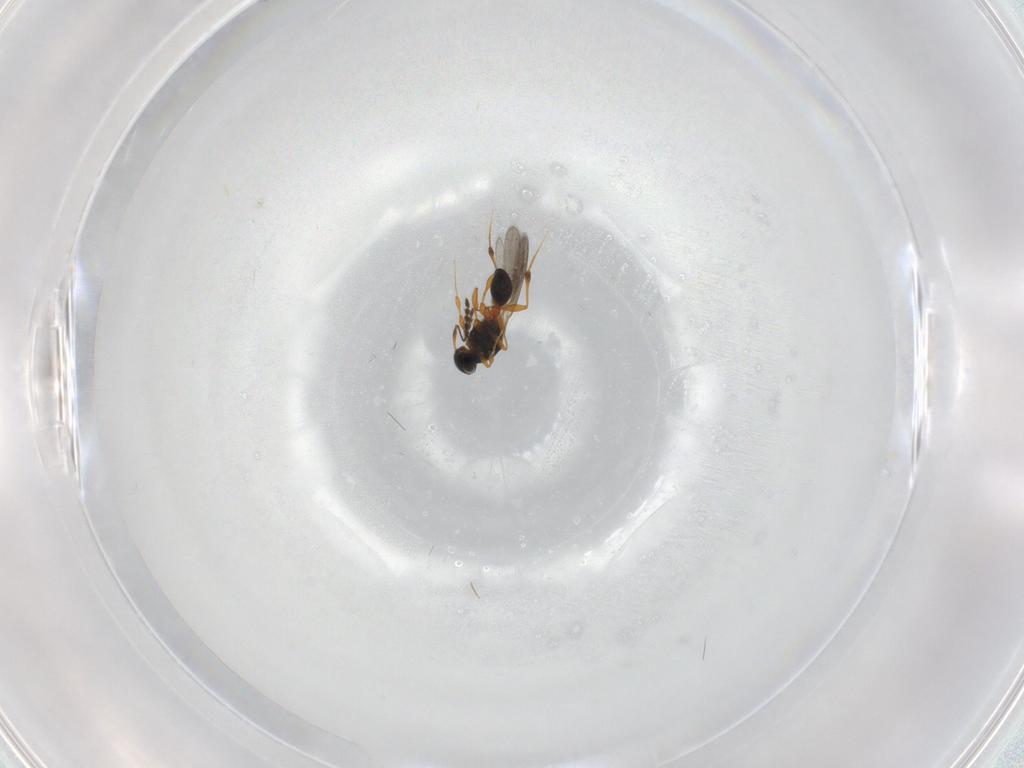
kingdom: Animalia
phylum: Arthropoda
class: Insecta
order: Hymenoptera
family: Platygastridae
